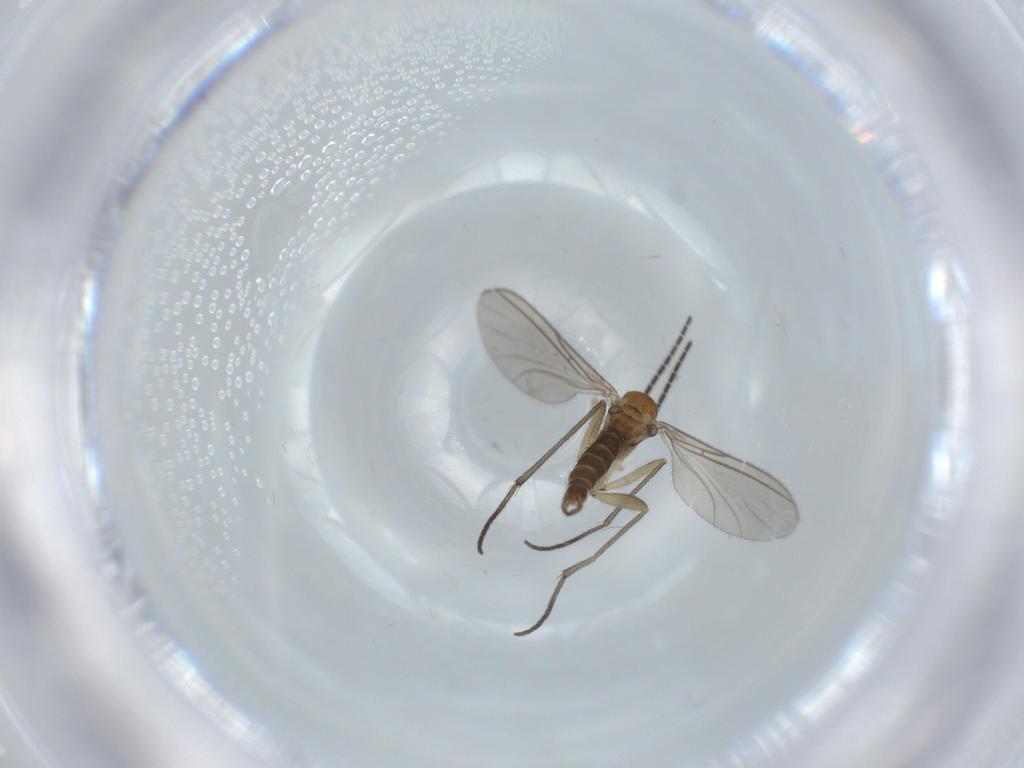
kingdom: Animalia
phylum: Arthropoda
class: Insecta
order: Diptera
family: Sciaridae
